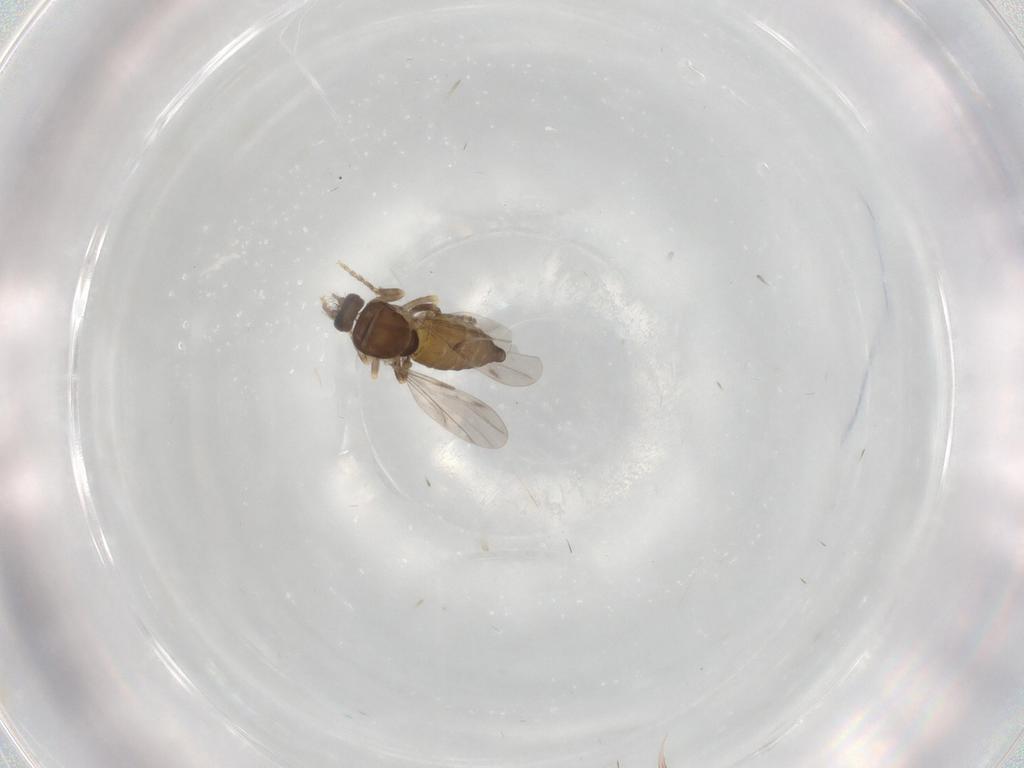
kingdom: Animalia
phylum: Arthropoda
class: Insecta
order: Diptera
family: Ceratopogonidae
